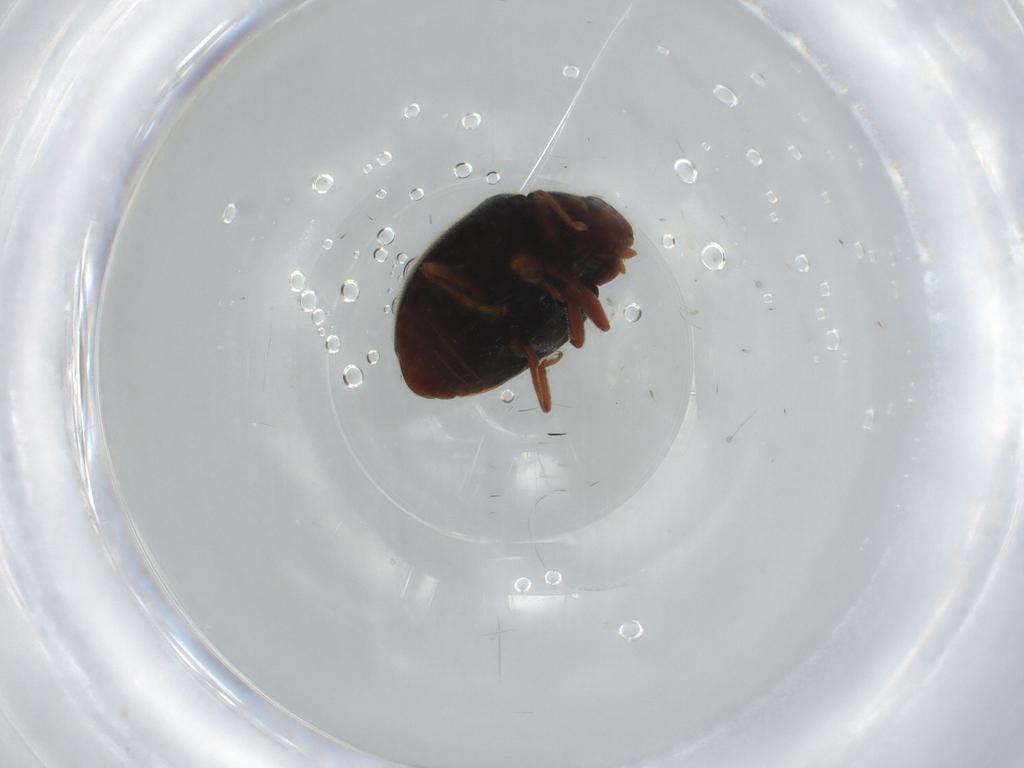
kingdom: Animalia
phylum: Arthropoda
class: Insecta
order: Coleoptera
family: Coccinellidae
